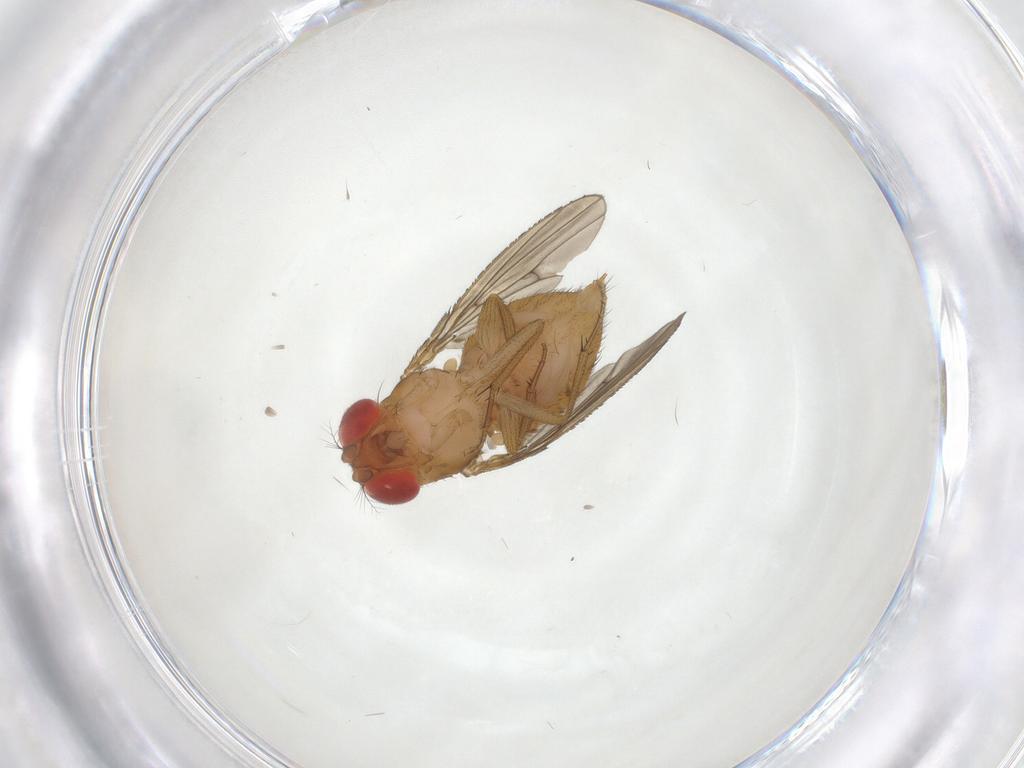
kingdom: Animalia
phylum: Arthropoda
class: Insecta
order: Diptera
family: Drosophilidae
